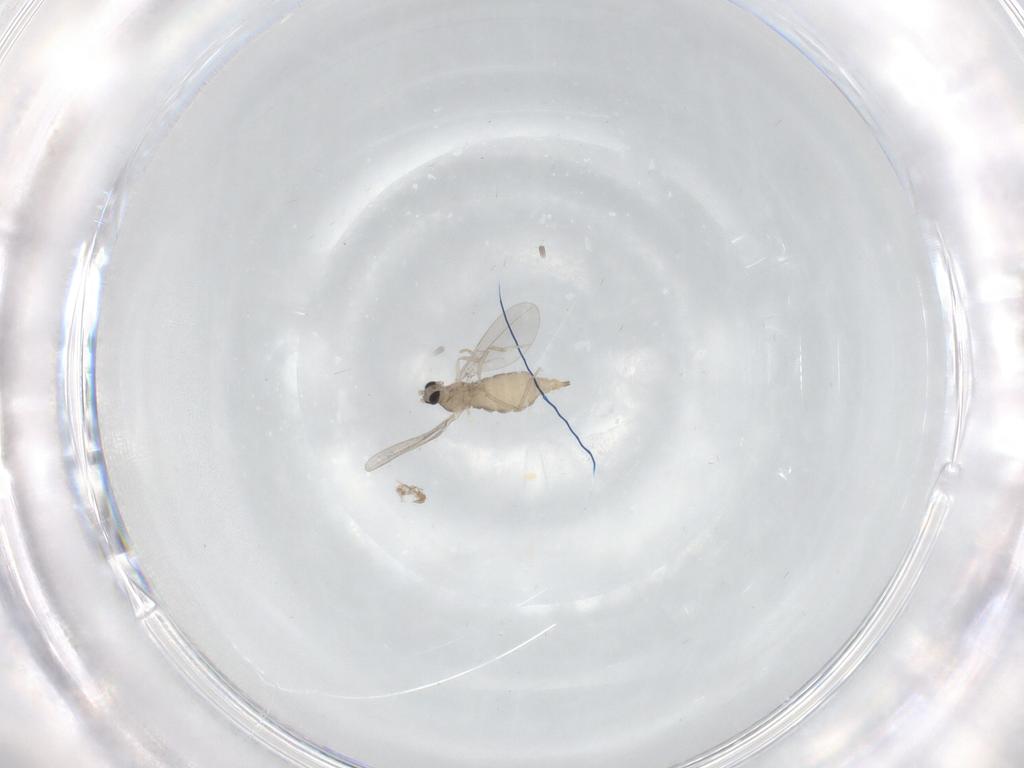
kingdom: Animalia
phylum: Arthropoda
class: Insecta
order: Diptera
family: Cecidomyiidae
